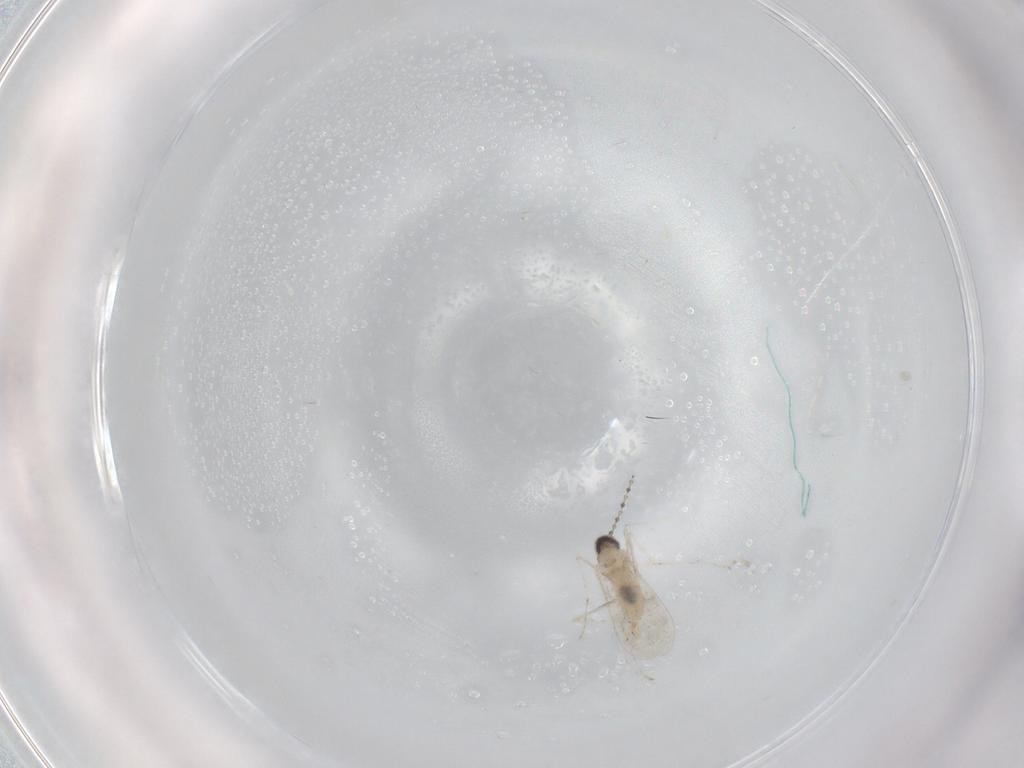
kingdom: Animalia
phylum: Arthropoda
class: Insecta
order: Diptera
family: Cecidomyiidae
